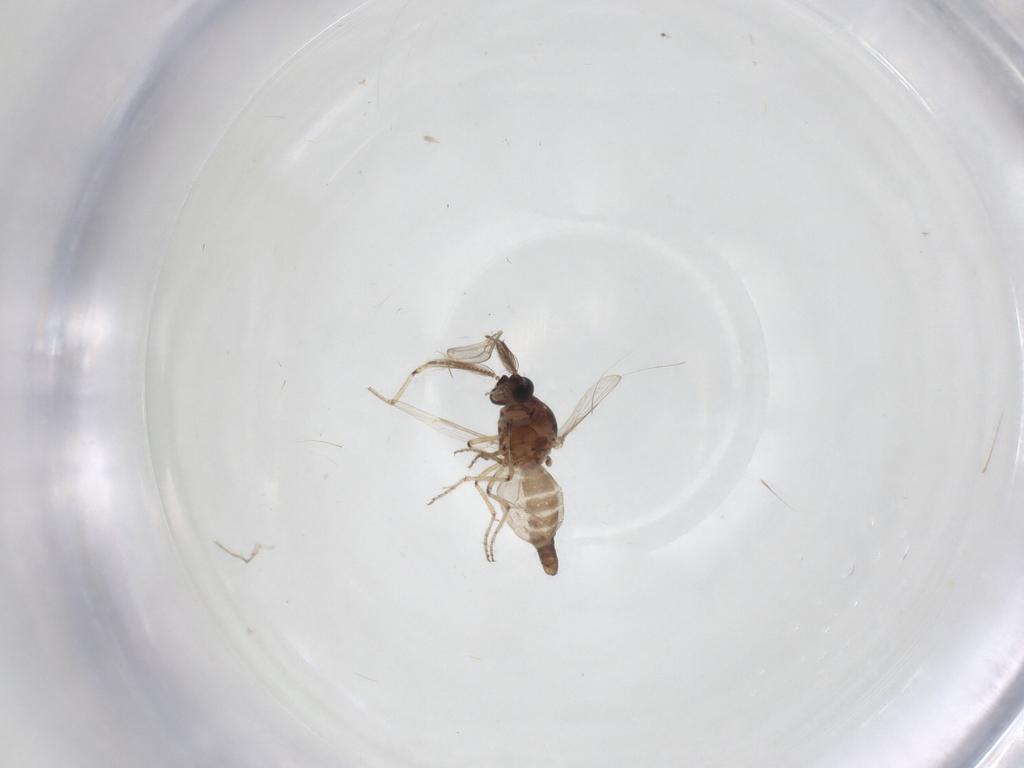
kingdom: Animalia
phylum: Arthropoda
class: Insecta
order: Diptera
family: Ceratopogonidae
